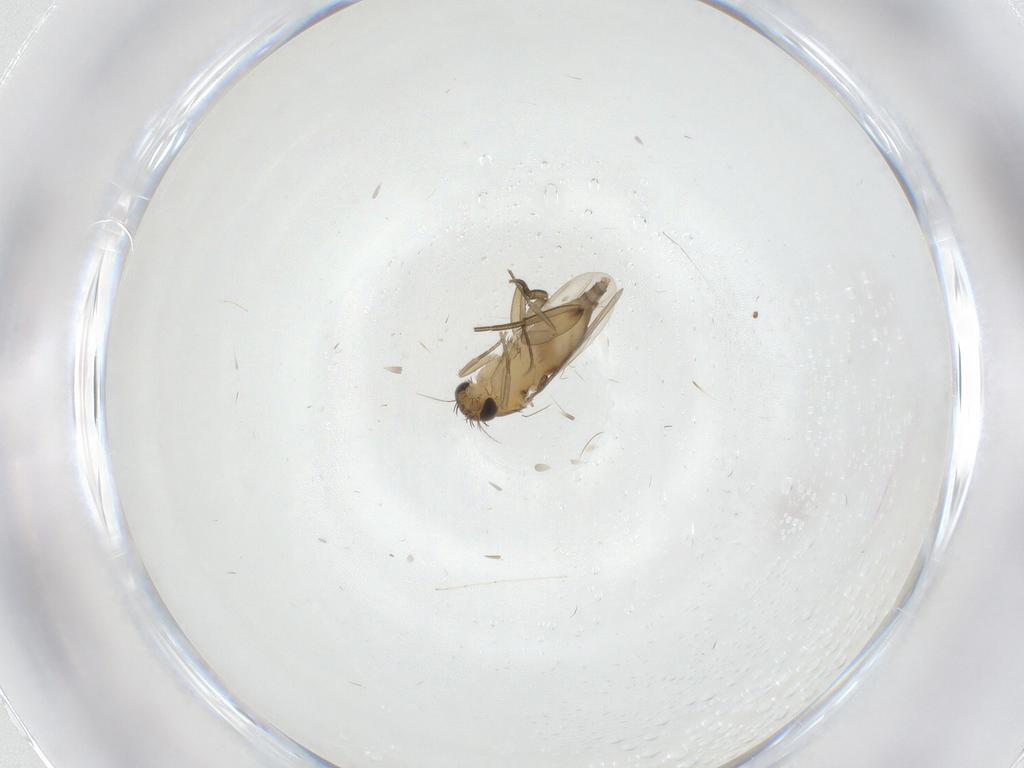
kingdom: Animalia
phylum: Arthropoda
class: Insecta
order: Diptera
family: Phoridae
